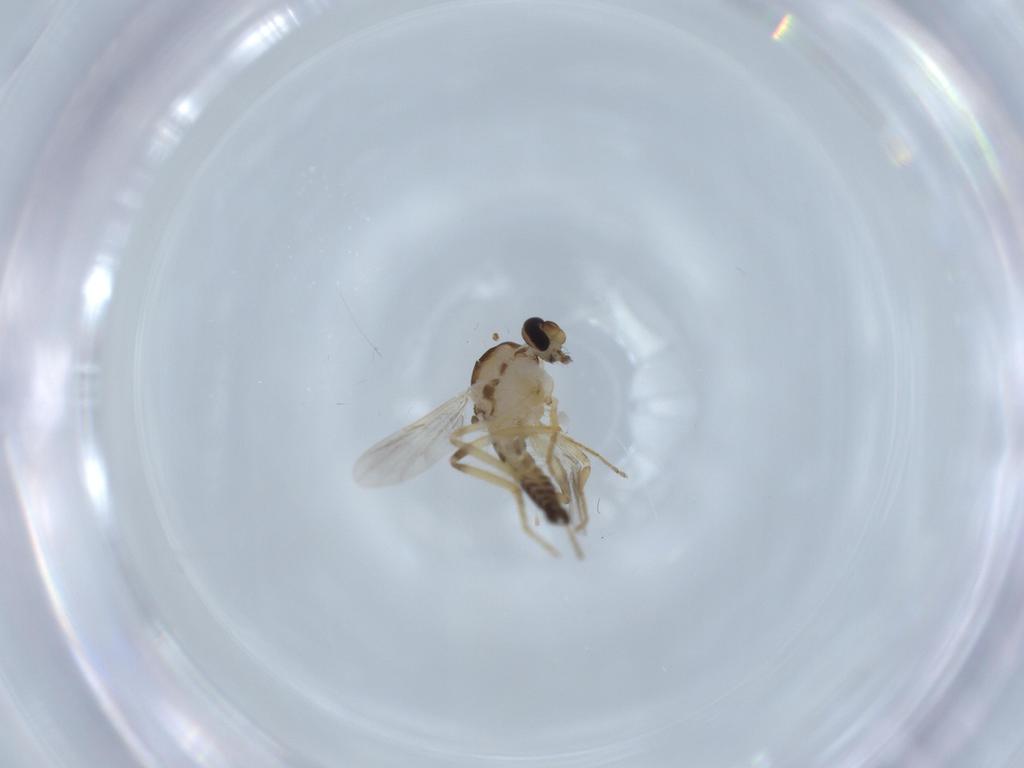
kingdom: Animalia
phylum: Arthropoda
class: Insecta
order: Diptera
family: Ceratopogonidae
